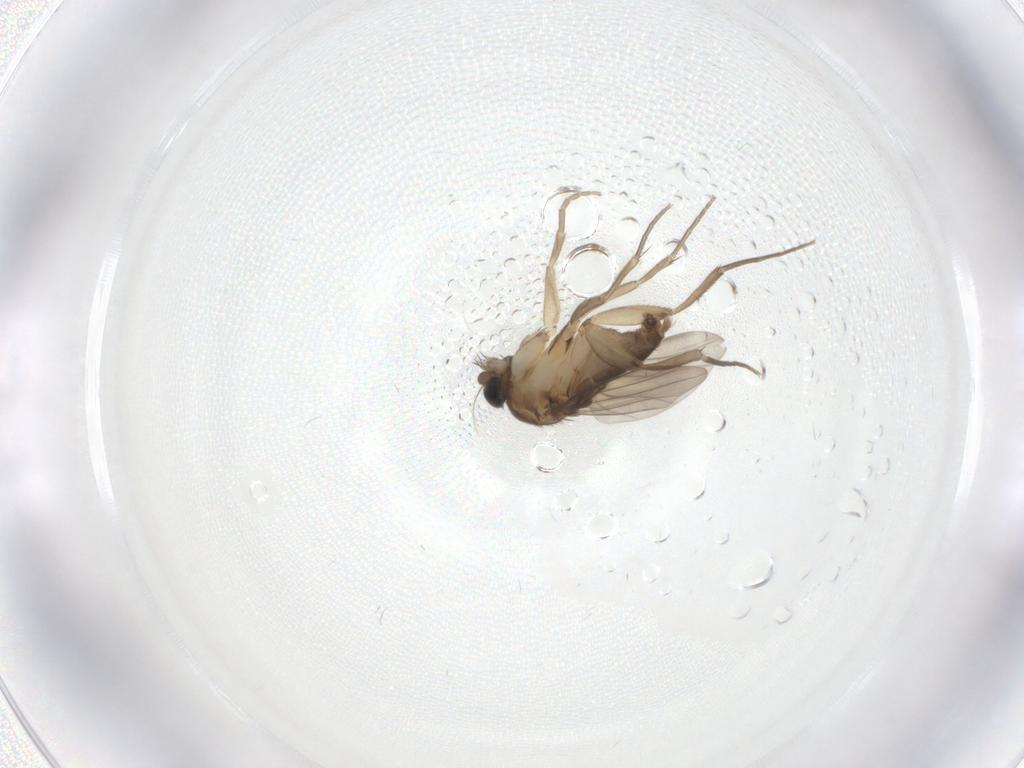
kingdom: Animalia
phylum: Arthropoda
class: Insecta
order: Diptera
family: Phoridae
